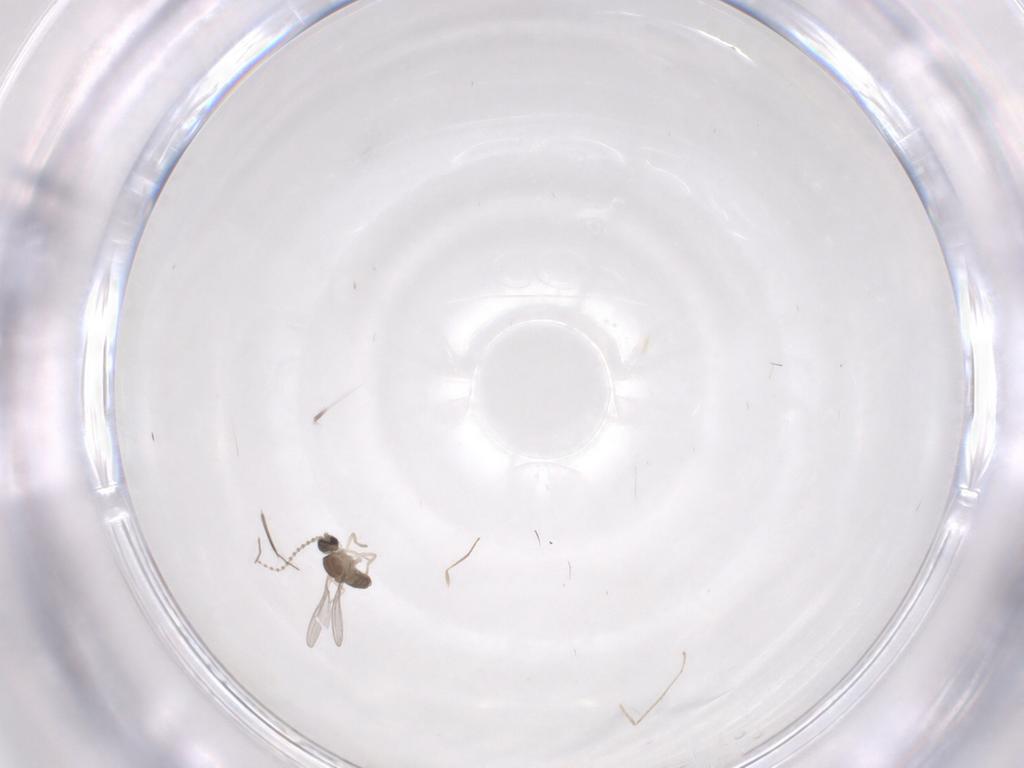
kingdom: Animalia
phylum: Arthropoda
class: Insecta
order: Diptera
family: Cecidomyiidae
